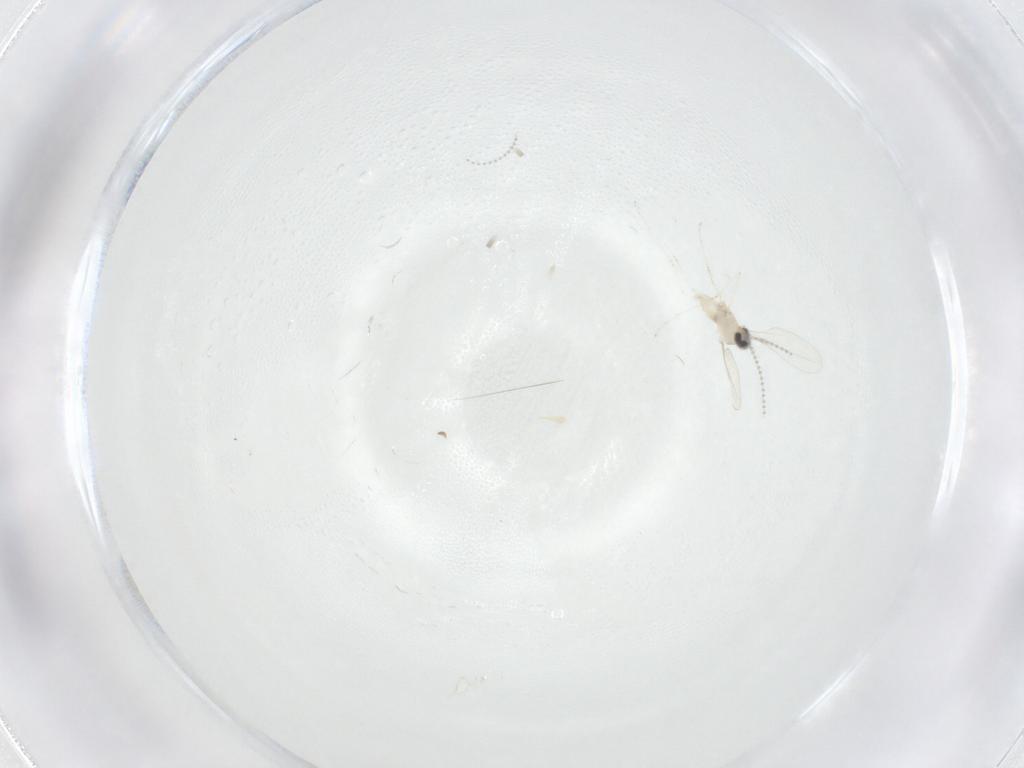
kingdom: Animalia
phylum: Arthropoda
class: Insecta
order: Diptera
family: Cecidomyiidae
